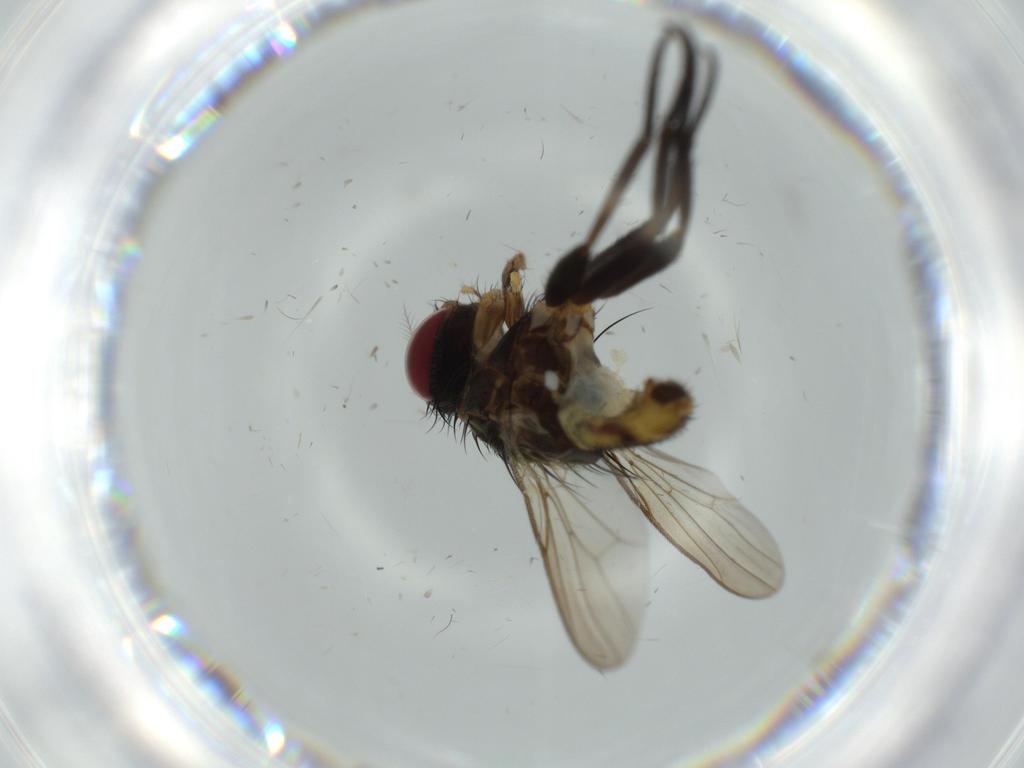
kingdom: Animalia
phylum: Arthropoda
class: Insecta
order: Diptera
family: Anthomyiidae
